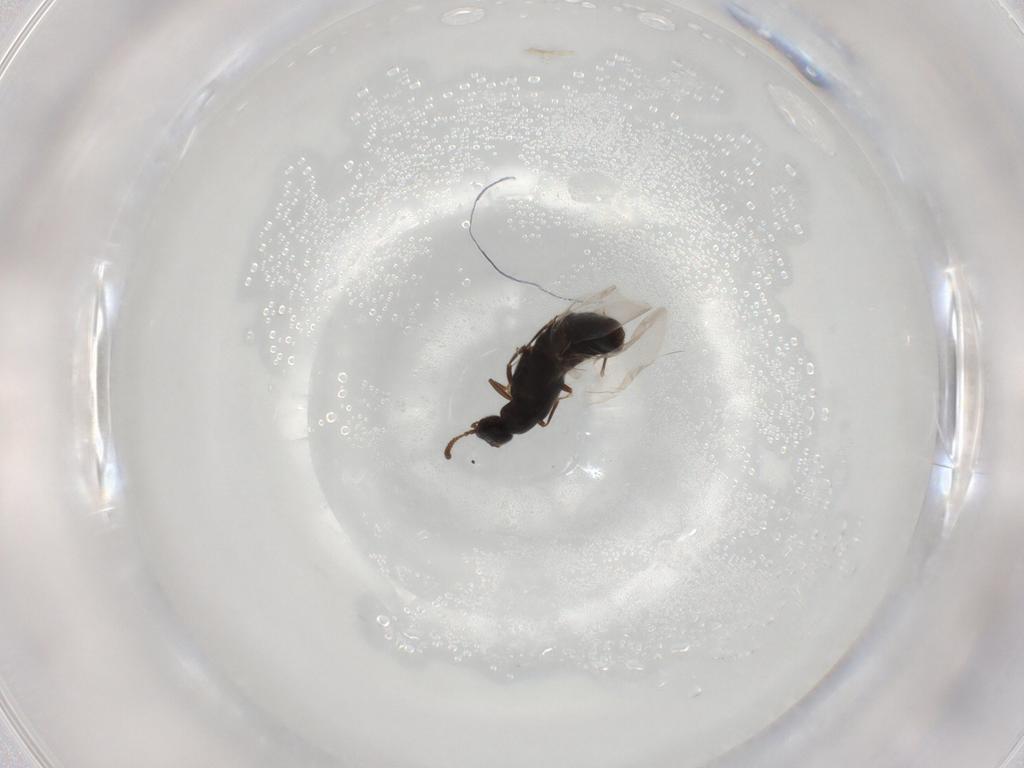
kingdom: Animalia
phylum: Arthropoda
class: Insecta
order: Coleoptera
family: Staphylinidae
